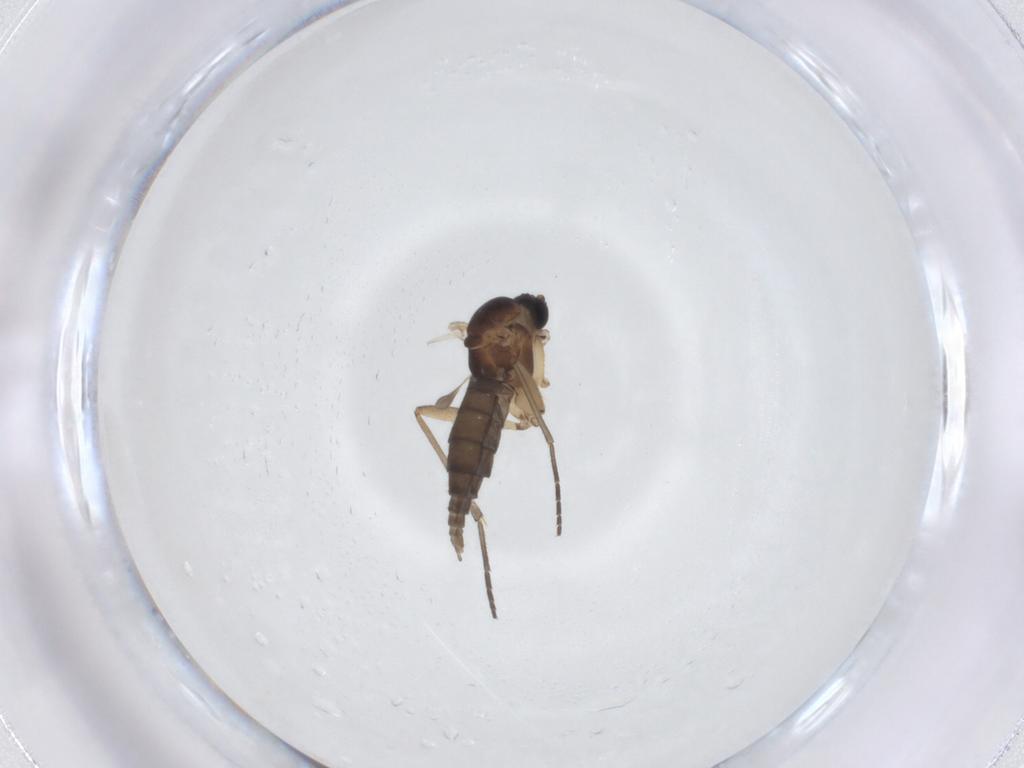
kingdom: Animalia
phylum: Arthropoda
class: Insecta
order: Diptera
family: Sciaridae
